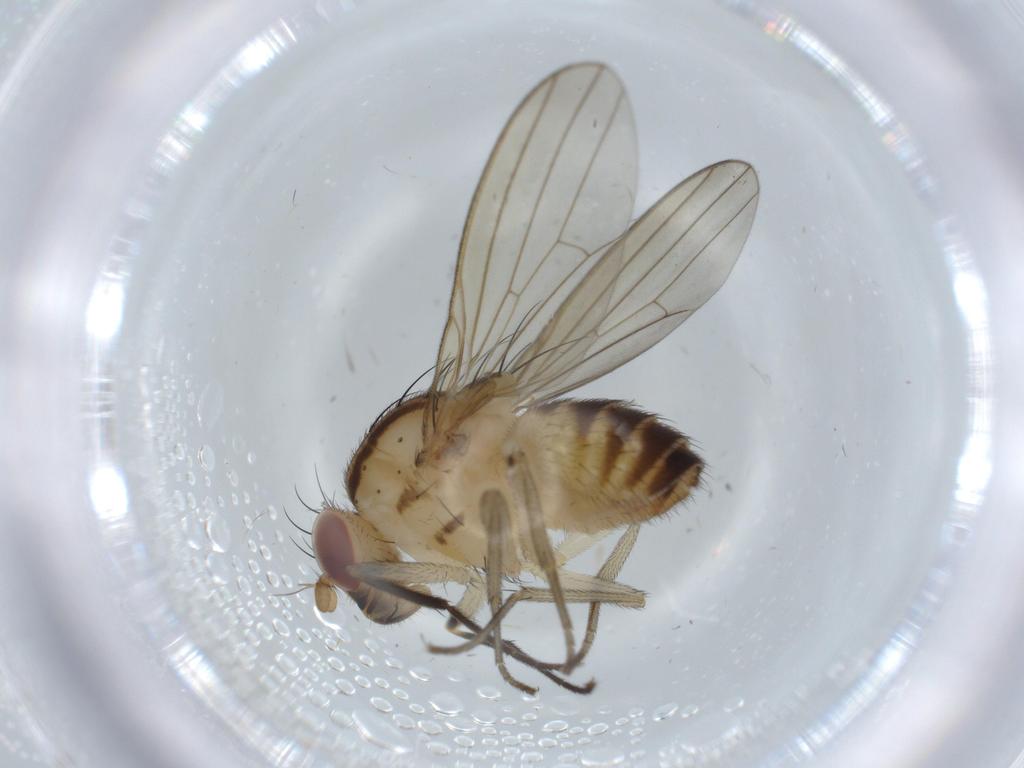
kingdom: Animalia
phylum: Arthropoda
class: Insecta
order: Diptera
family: Lauxaniidae
